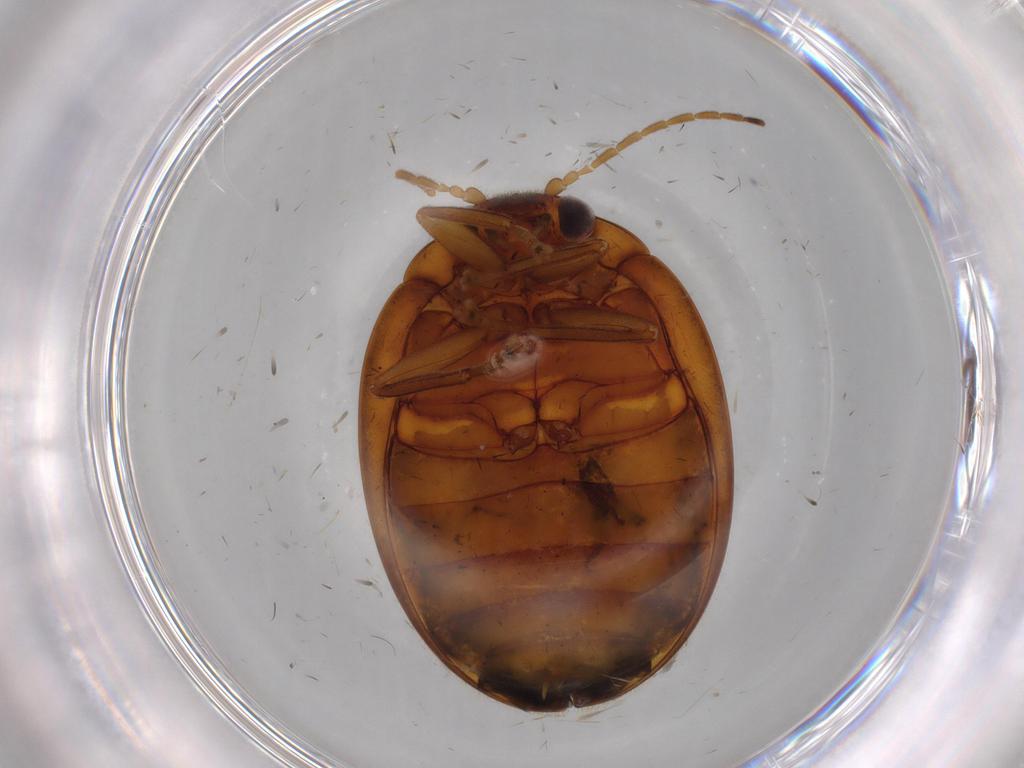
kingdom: Animalia
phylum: Arthropoda
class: Insecta
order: Coleoptera
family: Scirtidae
